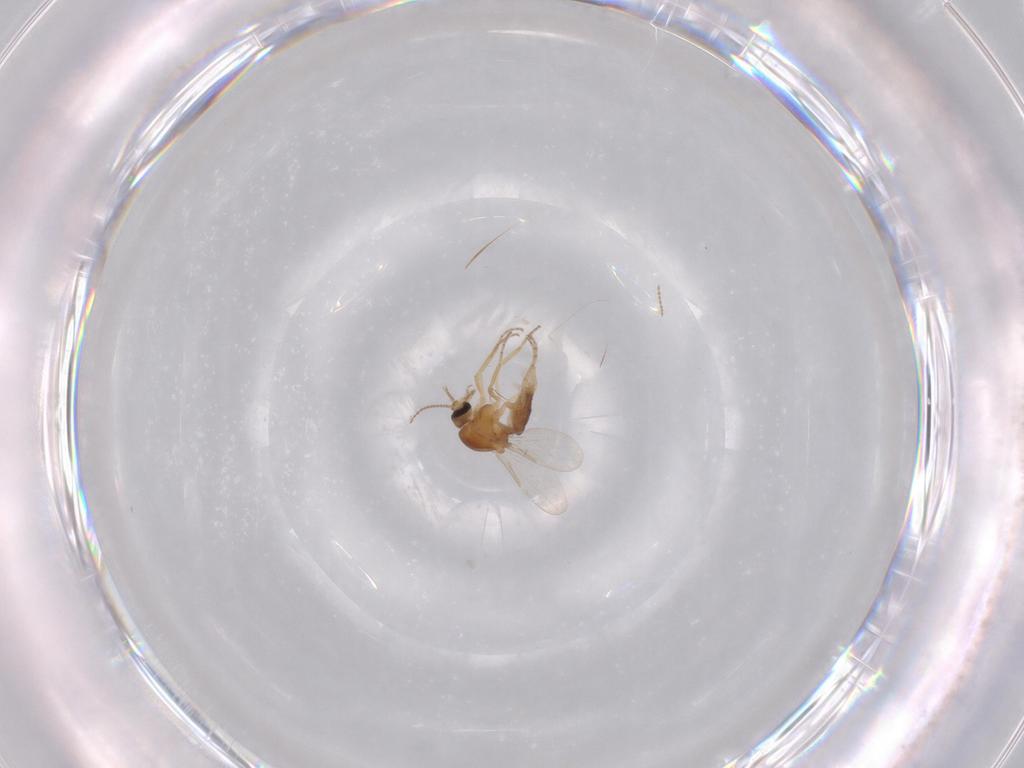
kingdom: Animalia
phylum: Arthropoda
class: Insecta
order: Diptera
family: Ceratopogonidae
